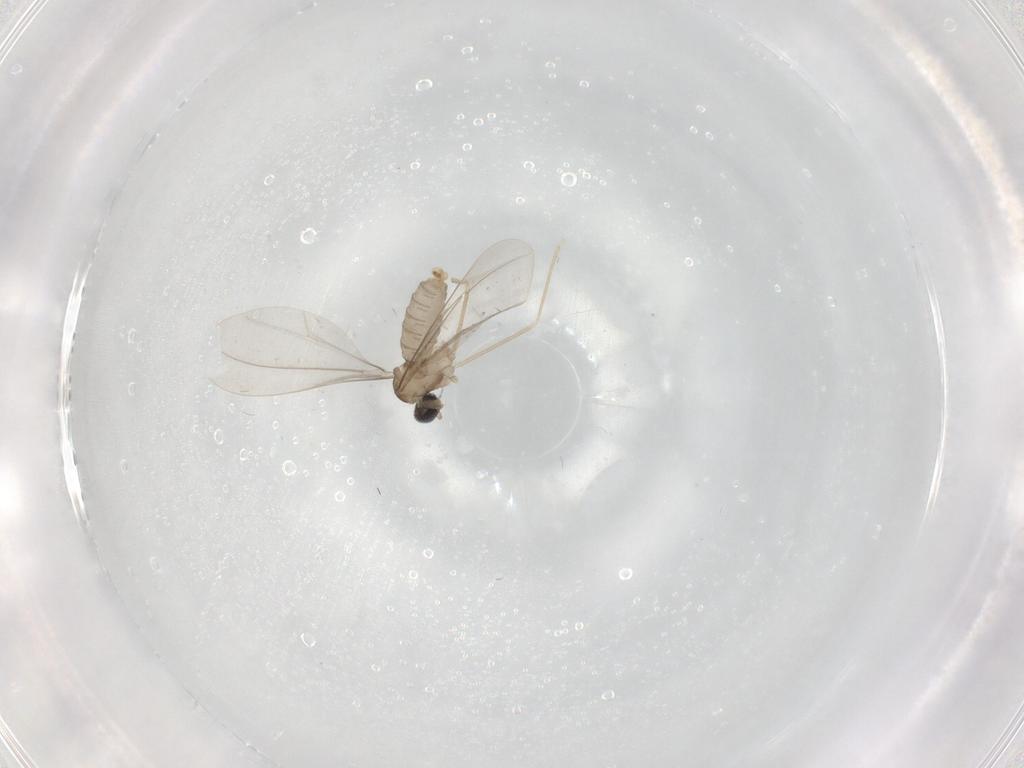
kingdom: Animalia
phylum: Arthropoda
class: Insecta
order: Diptera
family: Cecidomyiidae
